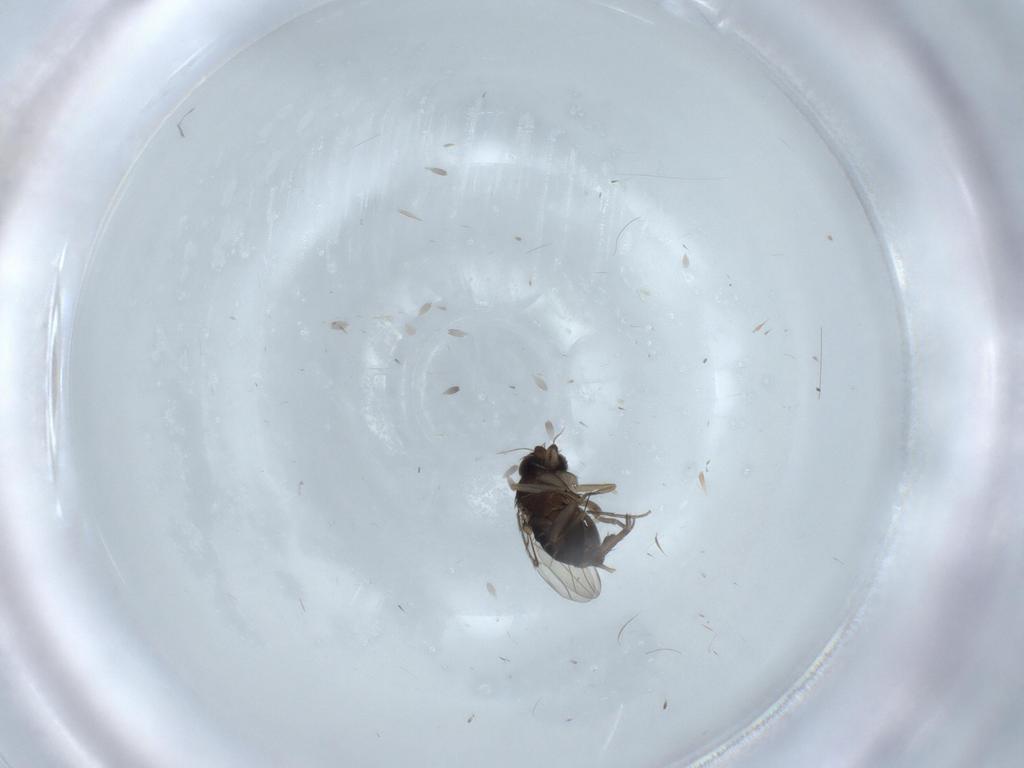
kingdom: Animalia
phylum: Arthropoda
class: Insecta
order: Diptera
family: Phoridae
